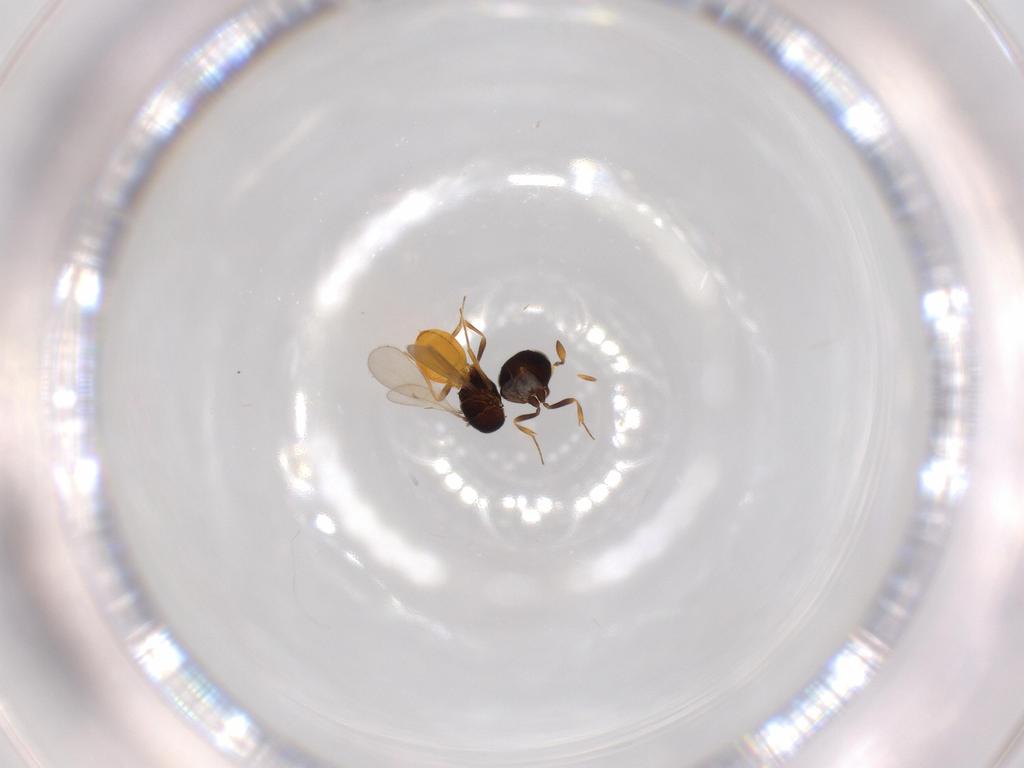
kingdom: Animalia
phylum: Arthropoda
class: Insecta
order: Hymenoptera
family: Scelionidae
